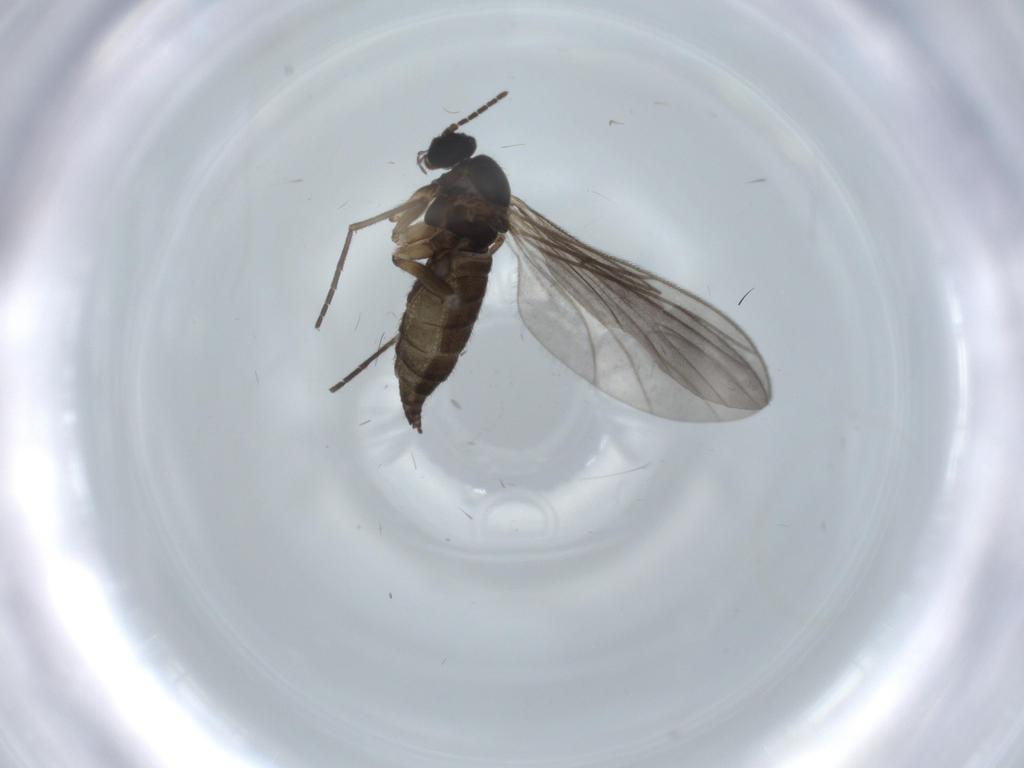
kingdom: Animalia
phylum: Arthropoda
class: Insecta
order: Diptera
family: Sciaridae
